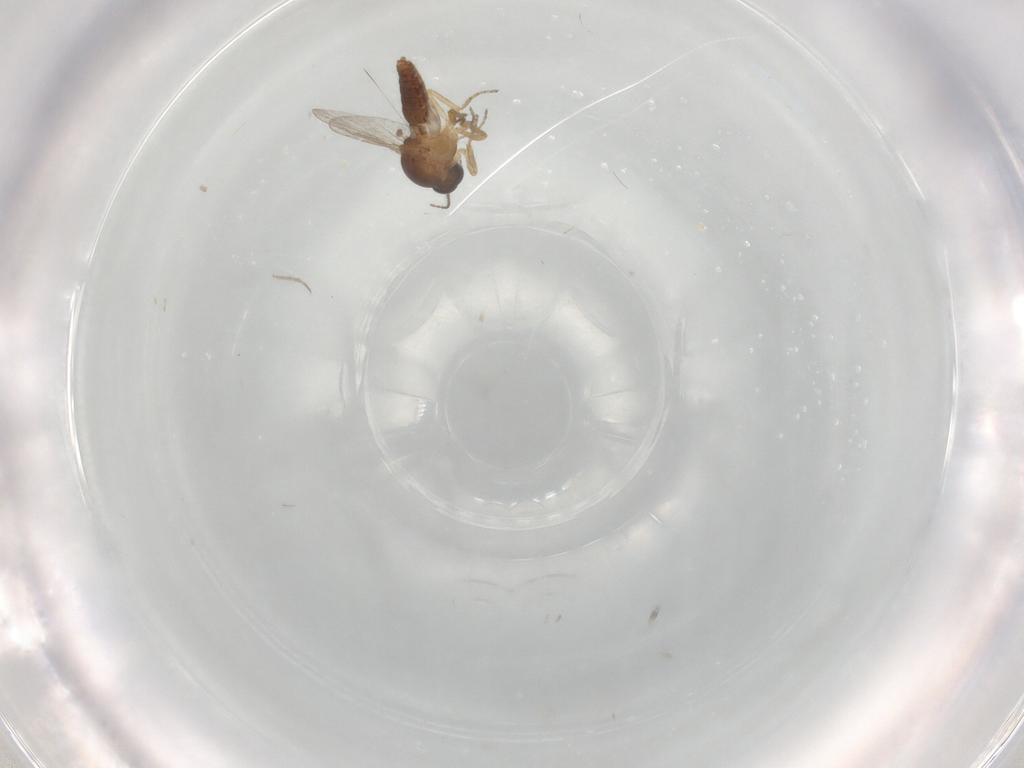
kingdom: Animalia
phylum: Arthropoda
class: Insecta
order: Diptera
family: Ceratopogonidae
